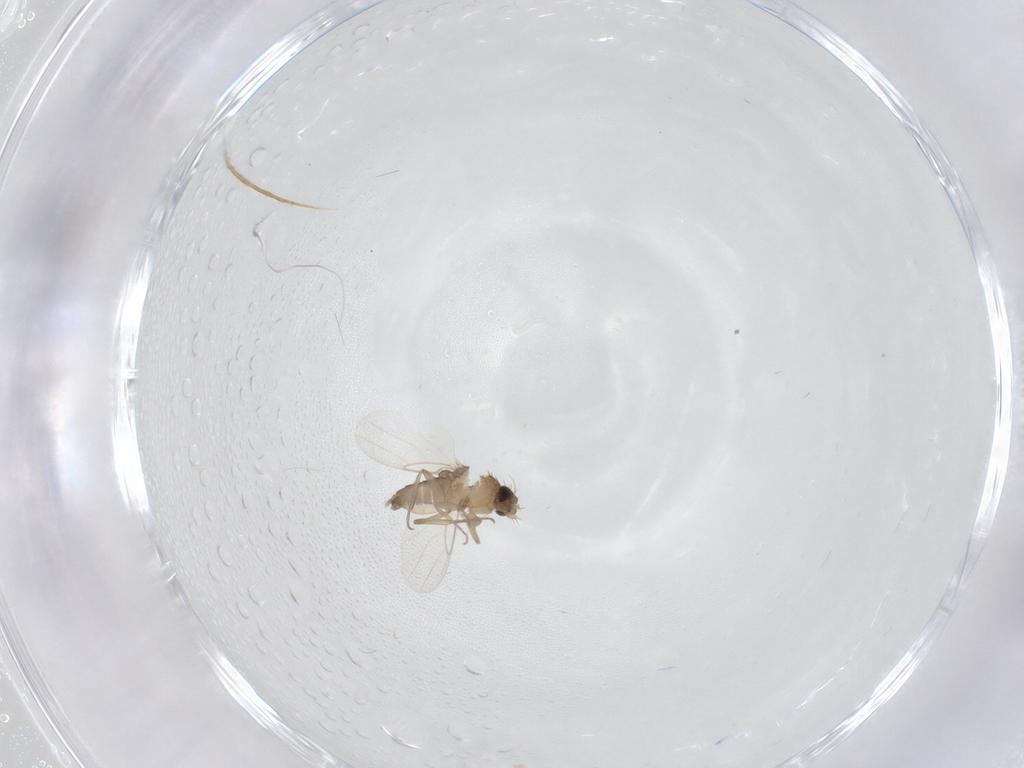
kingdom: Animalia
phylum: Arthropoda
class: Insecta
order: Diptera
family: Phoridae
